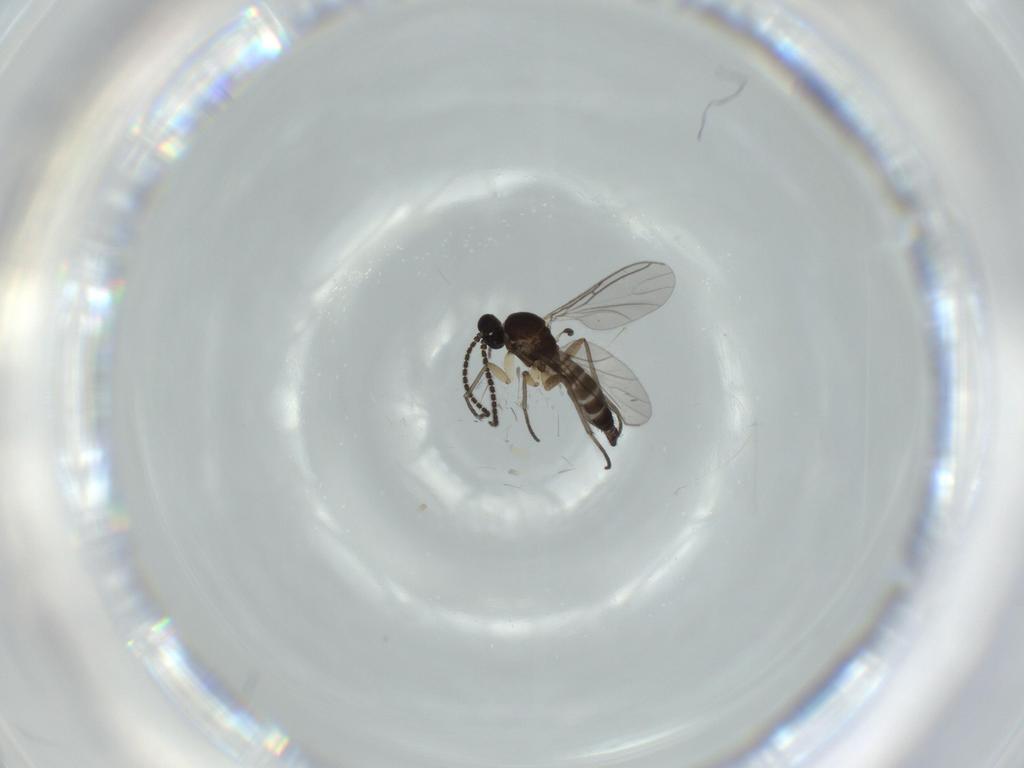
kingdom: Animalia
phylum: Arthropoda
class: Insecta
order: Diptera
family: Sciaridae
